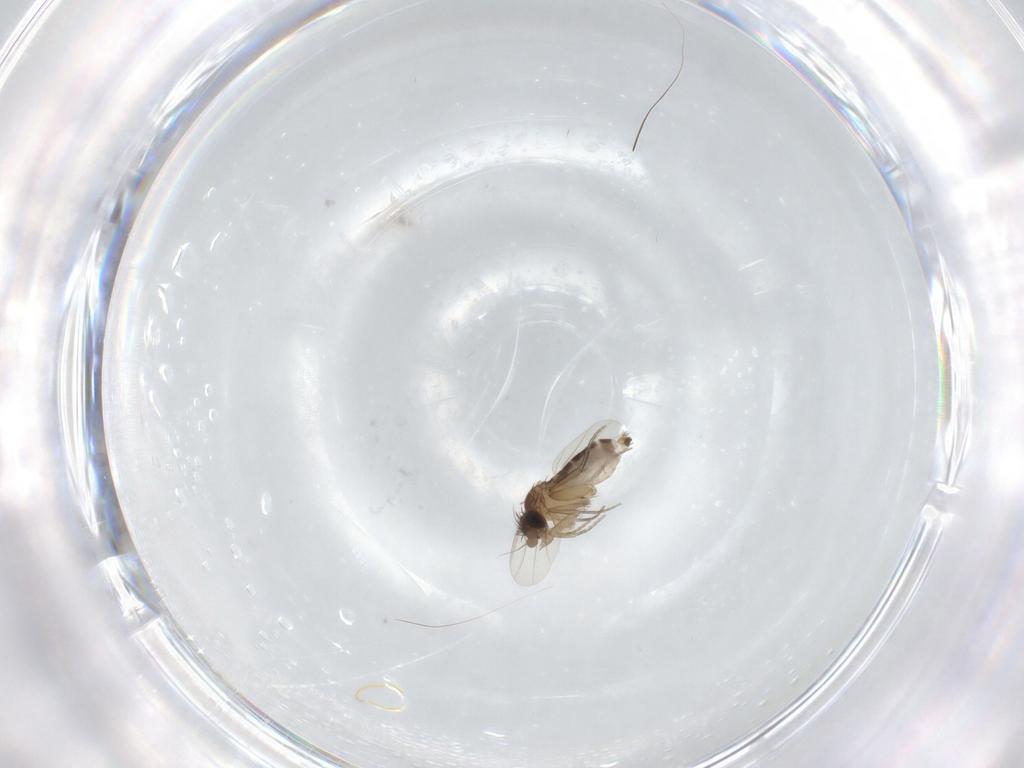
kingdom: Animalia
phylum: Arthropoda
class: Insecta
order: Diptera
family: Phoridae
